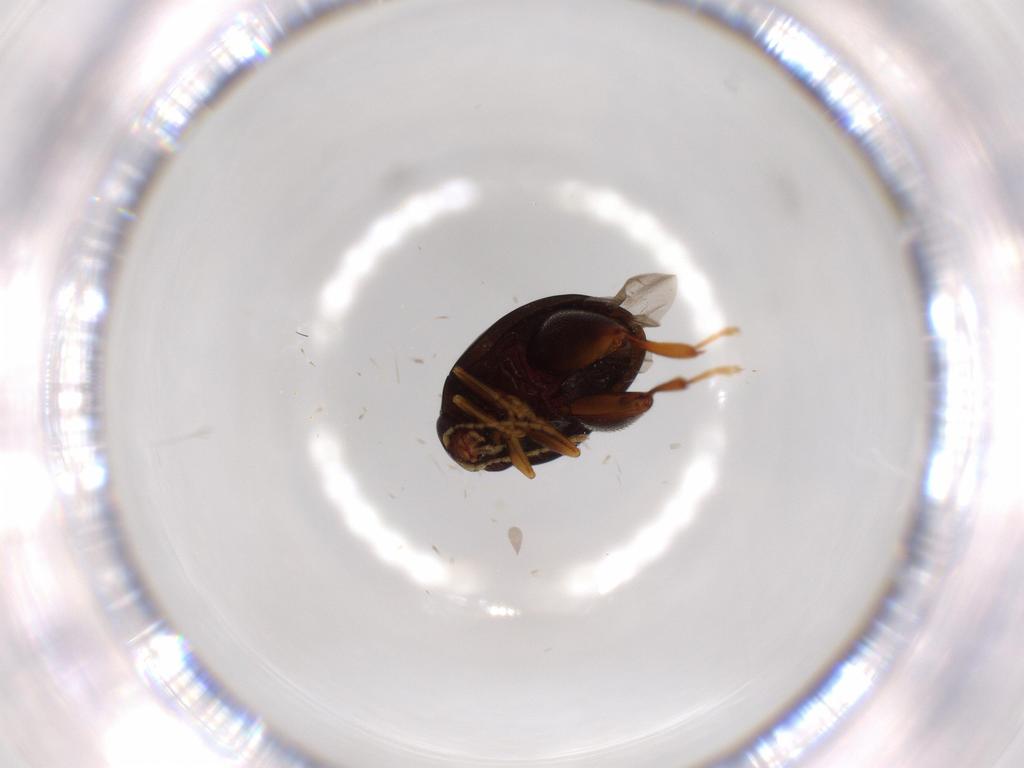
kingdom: Animalia
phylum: Arthropoda
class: Insecta
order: Coleoptera
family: Chrysomelidae
